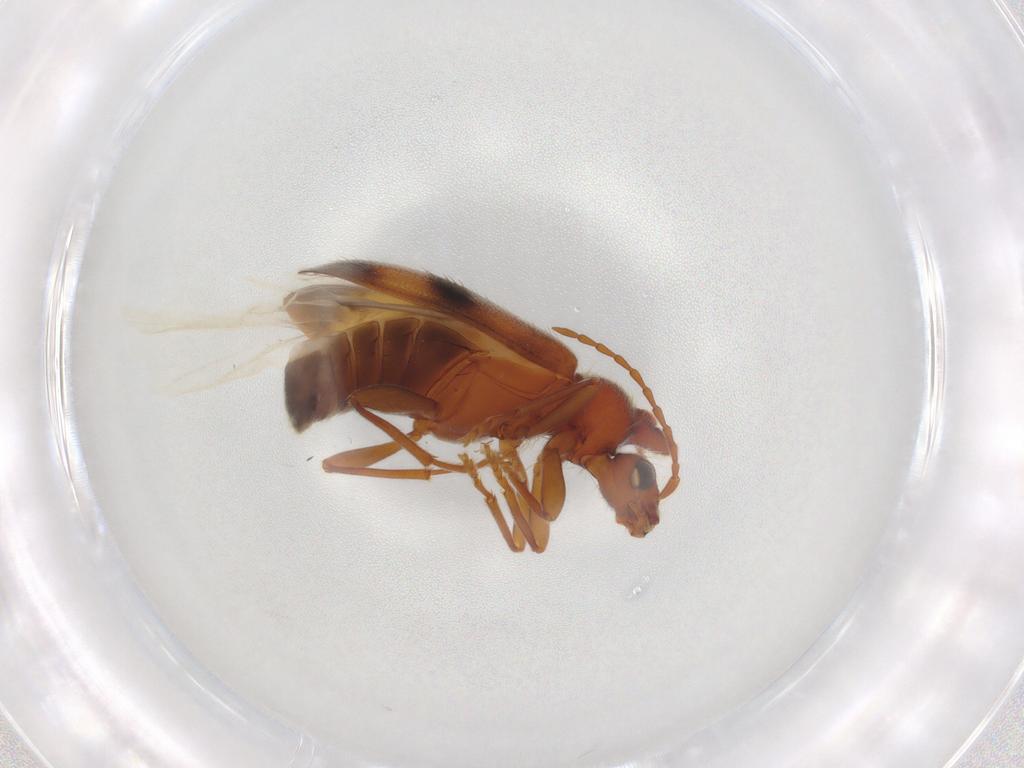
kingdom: Animalia
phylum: Arthropoda
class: Insecta
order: Coleoptera
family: Anthicidae
